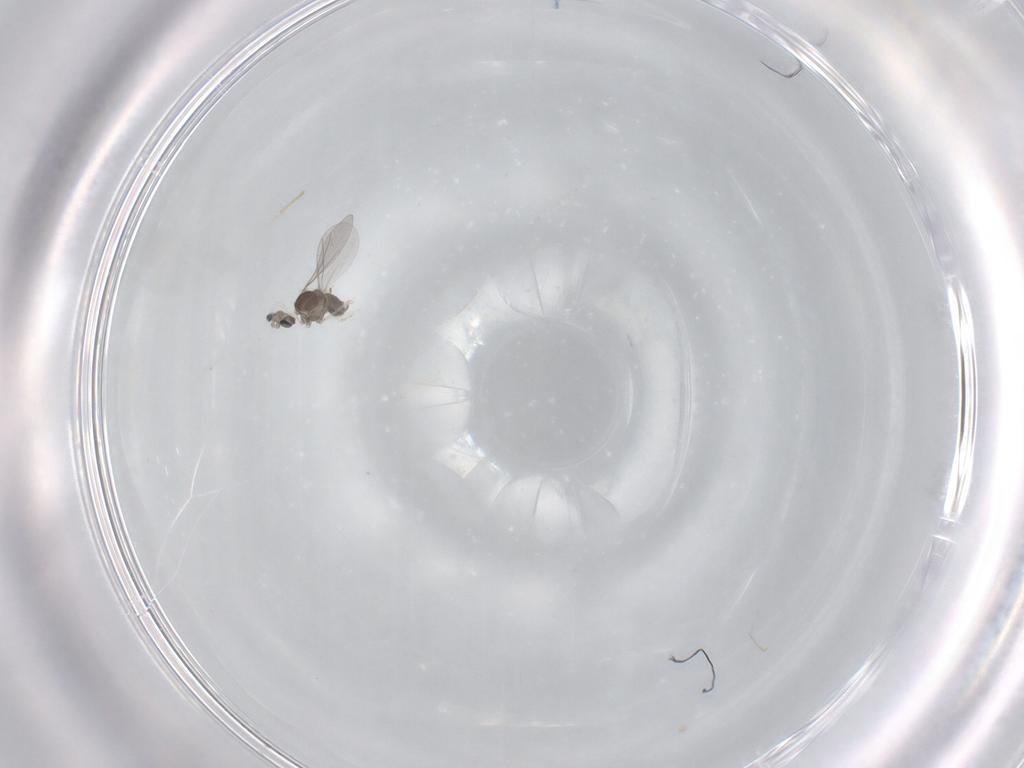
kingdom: Animalia
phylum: Arthropoda
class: Insecta
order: Diptera
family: Cecidomyiidae
